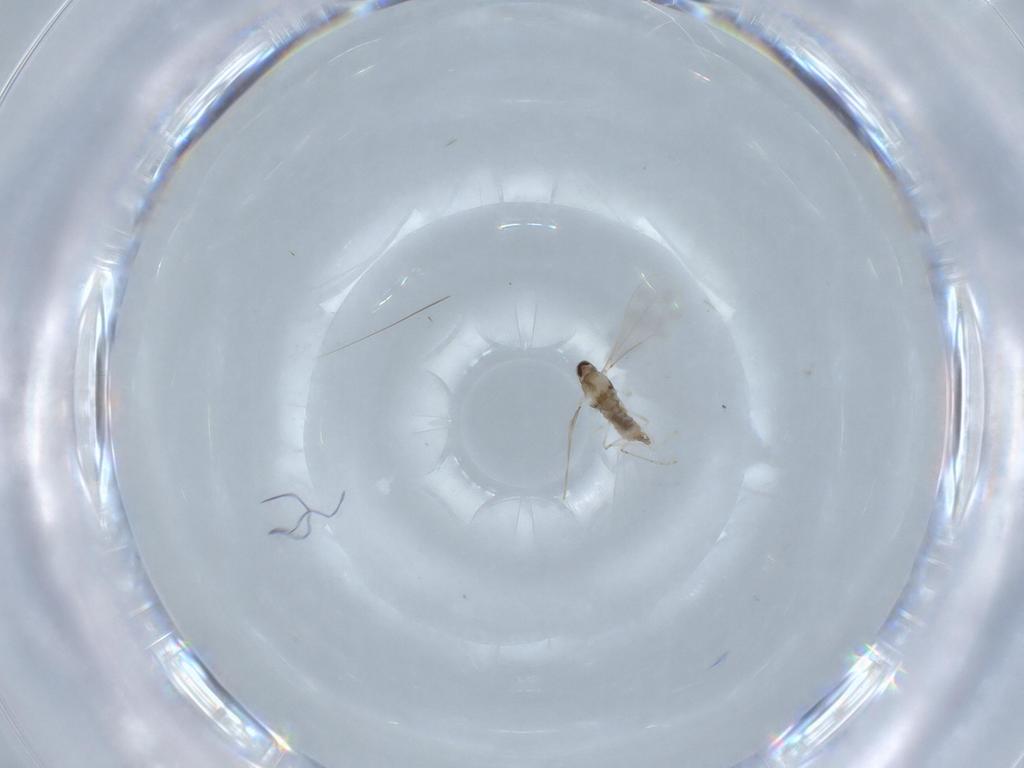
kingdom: Animalia
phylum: Arthropoda
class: Insecta
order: Diptera
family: Cecidomyiidae
